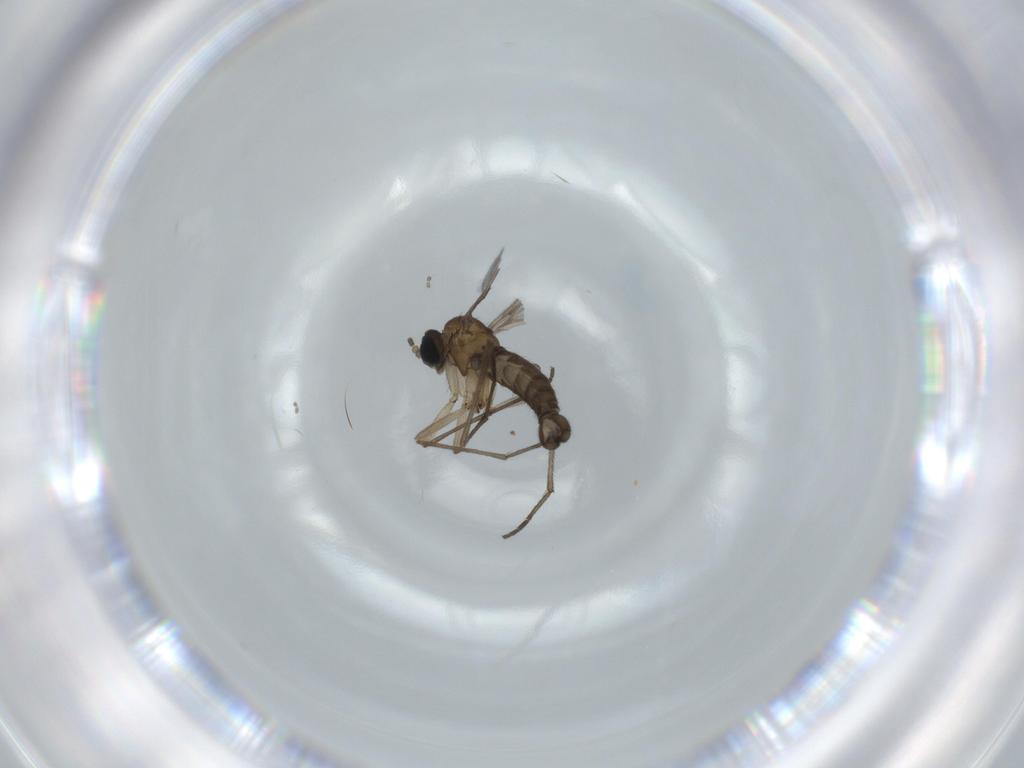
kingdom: Animalia
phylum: Arthropoda
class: Insecta
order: Diptera
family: Sciaridae
